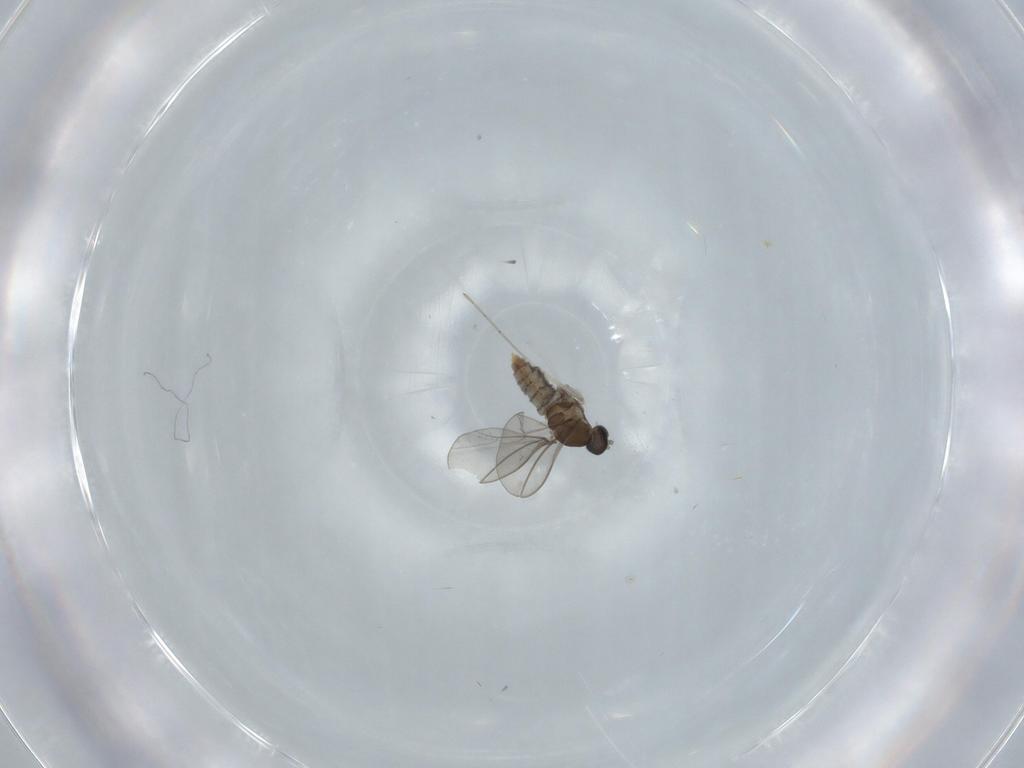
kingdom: Animalia
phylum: Arthropoda
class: Insecta
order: Diptera
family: Cecidomyiidae
